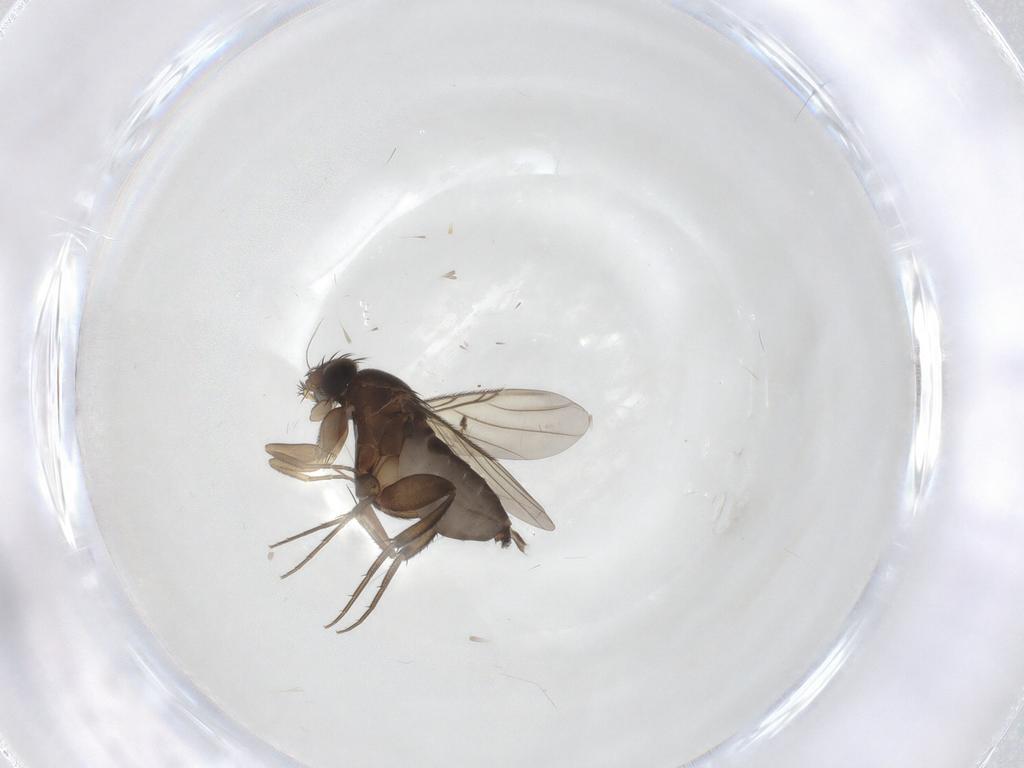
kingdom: Animalia
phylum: Arthropoda
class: Insecta
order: Diptera
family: Phoridae
